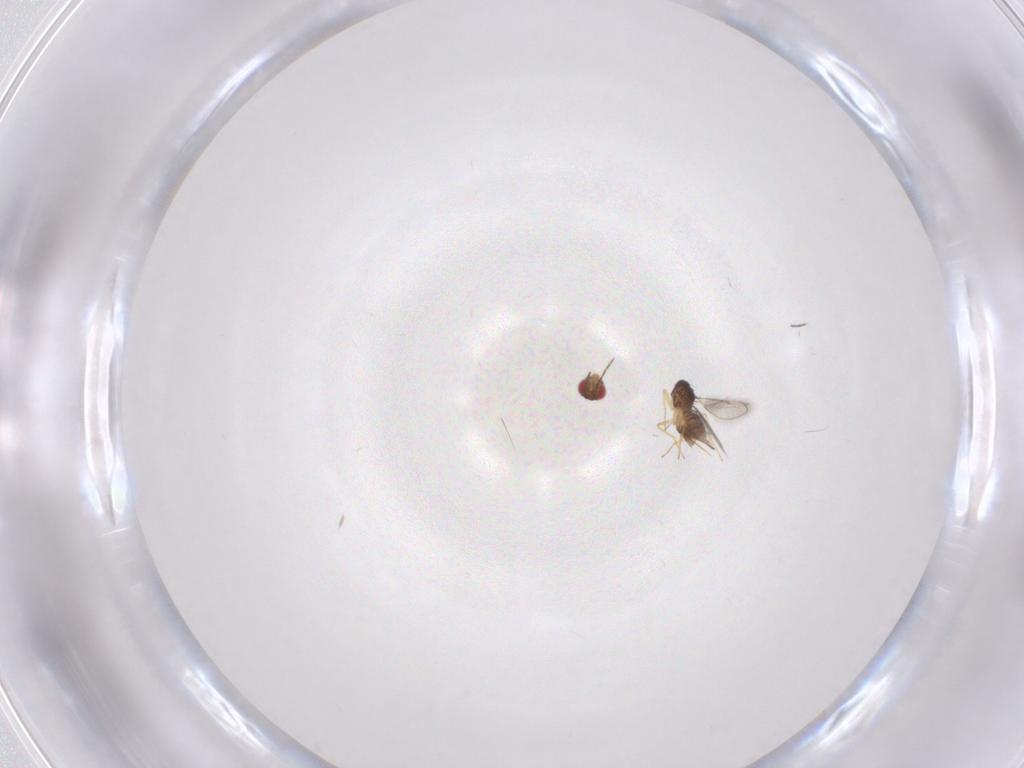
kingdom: Animalia
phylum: Arthropoda
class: Insecta
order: Hymenoptera
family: Eulophidae
